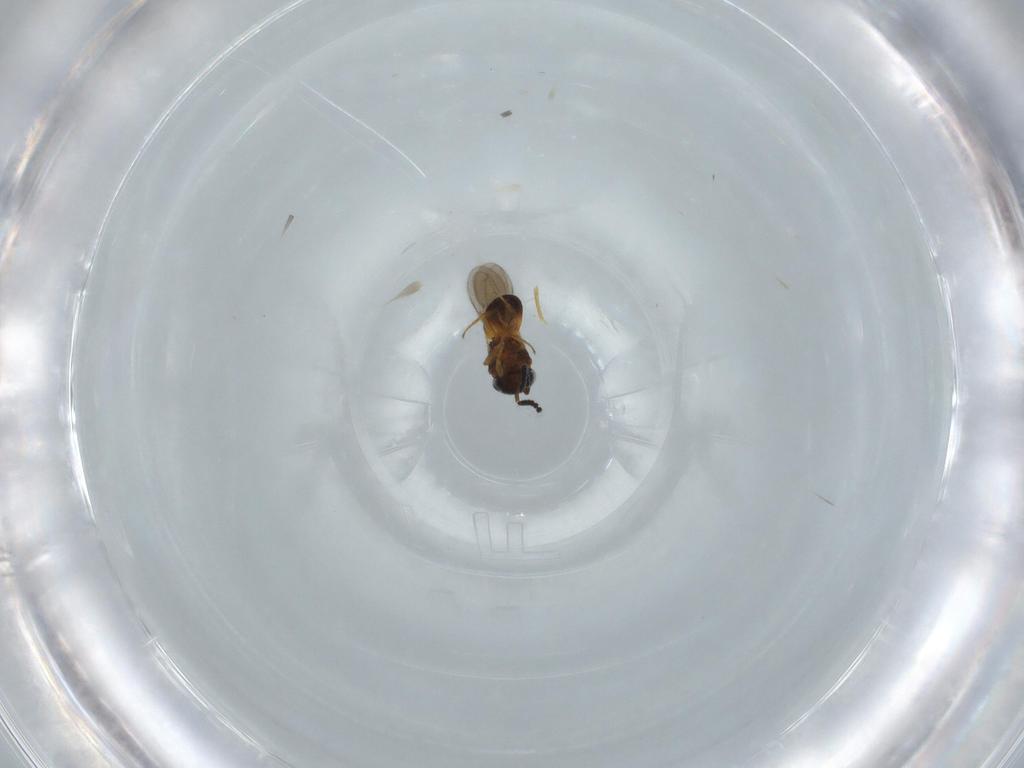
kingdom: Animalia
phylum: Arthropoda
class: Insecta
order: Hymenoptera
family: Scelionidae
